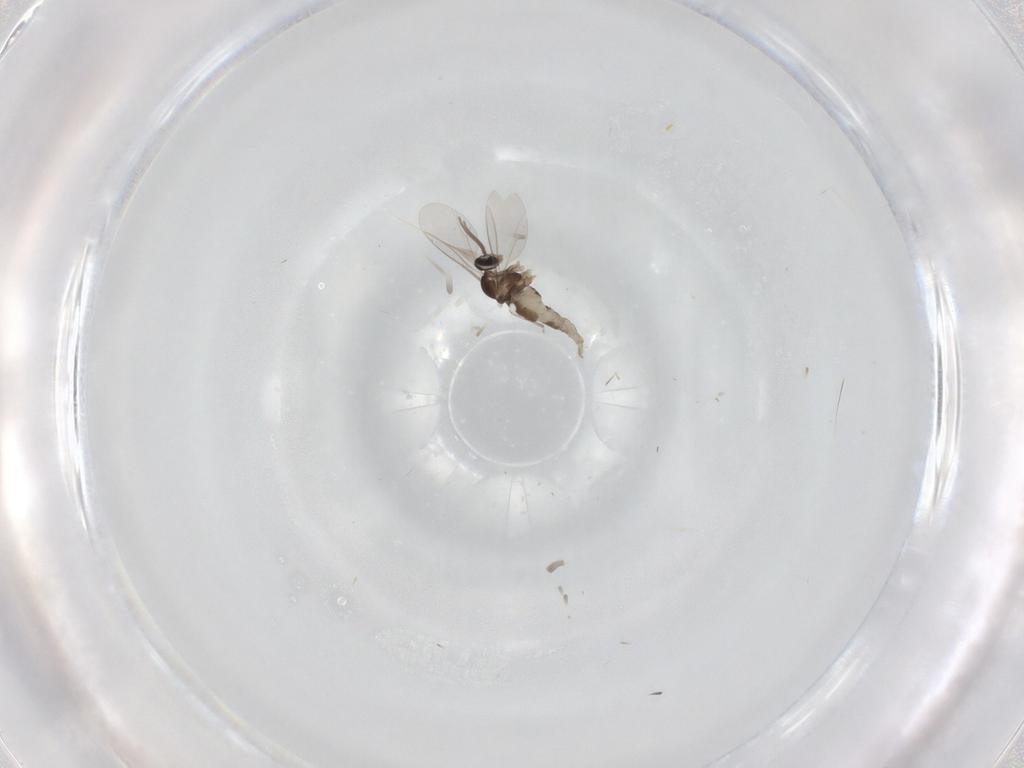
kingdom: Animalia
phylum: Arthropoda
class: Insecta
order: Diptera
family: Cecidomyiidae
